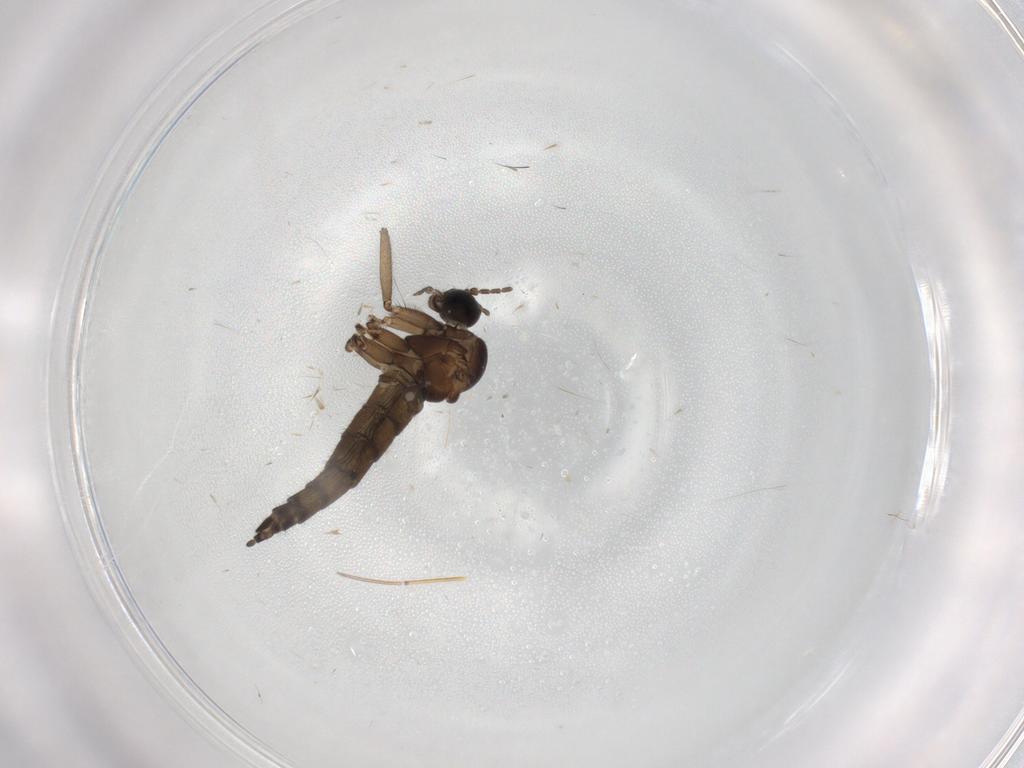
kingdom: Animalia
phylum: Arthropoda
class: Insecta
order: Diptera
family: Sciaridae
